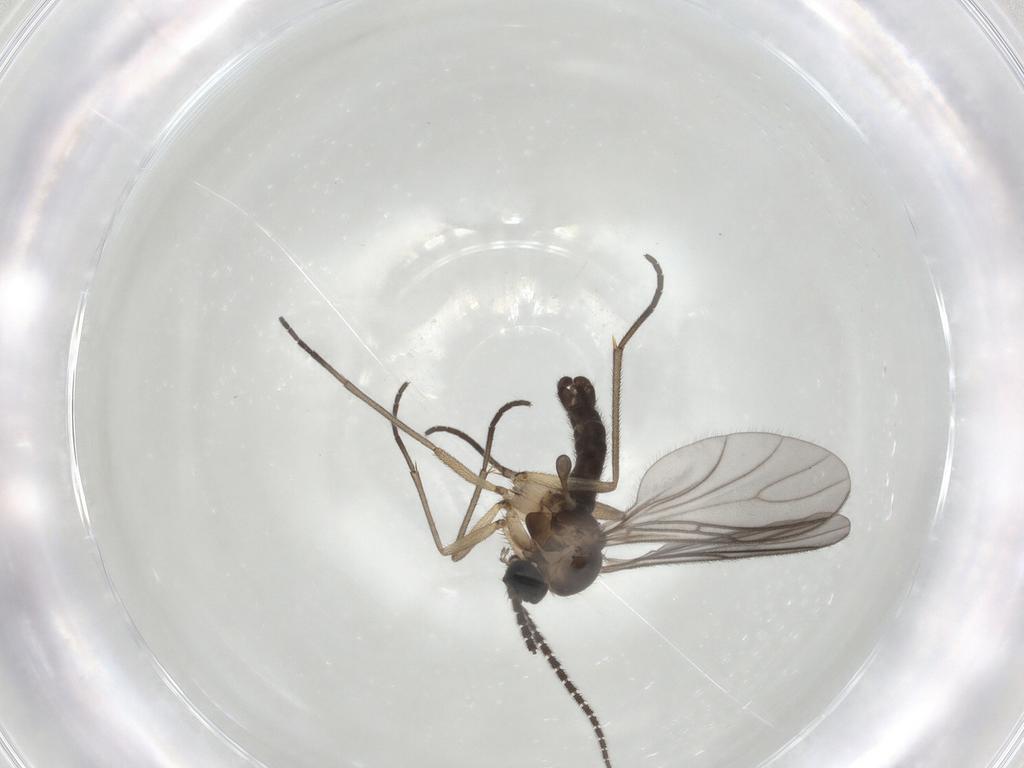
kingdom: Animalia
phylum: Arthropoda
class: Insecta
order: Diptera
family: Sciaridae
